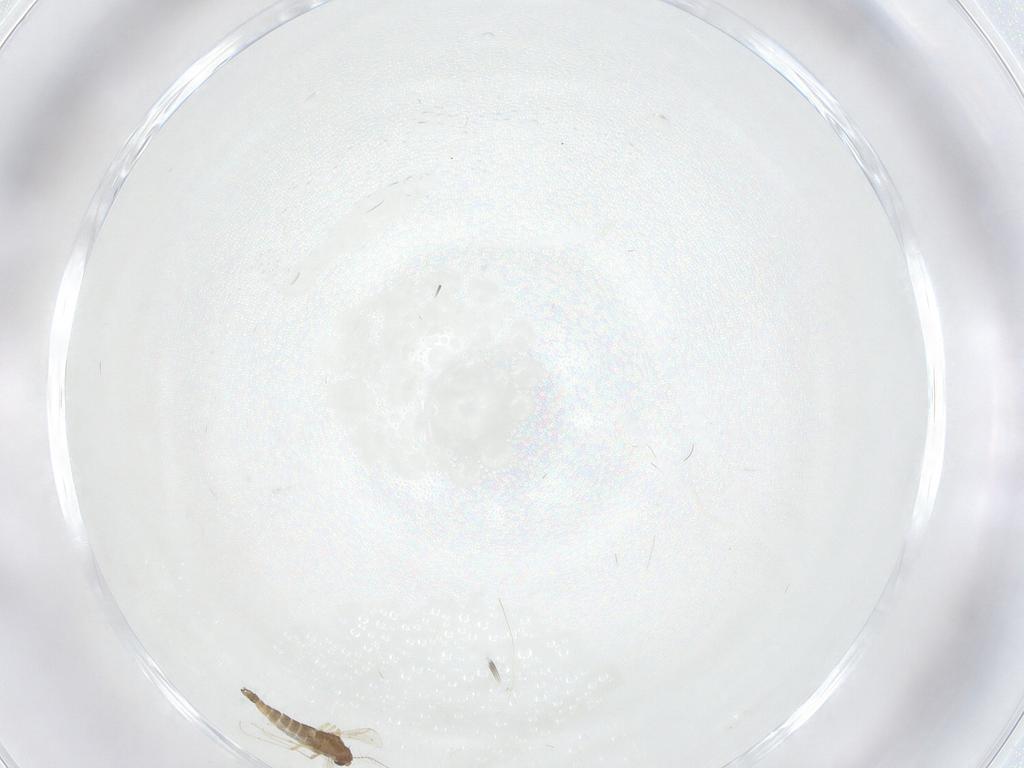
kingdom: Animalia
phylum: Arthropoda
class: Insecta
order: Diptera
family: Chironomidae
